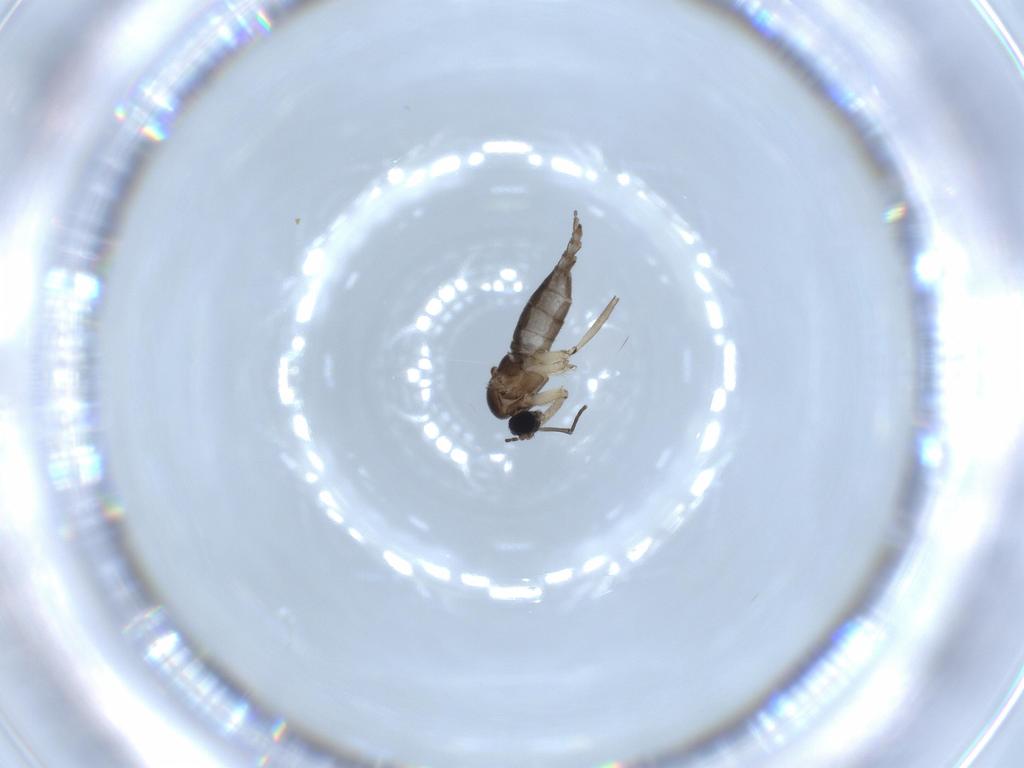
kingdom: Animalia
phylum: Arthropoda
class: Insecta
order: Diptera
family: Sciaridae
